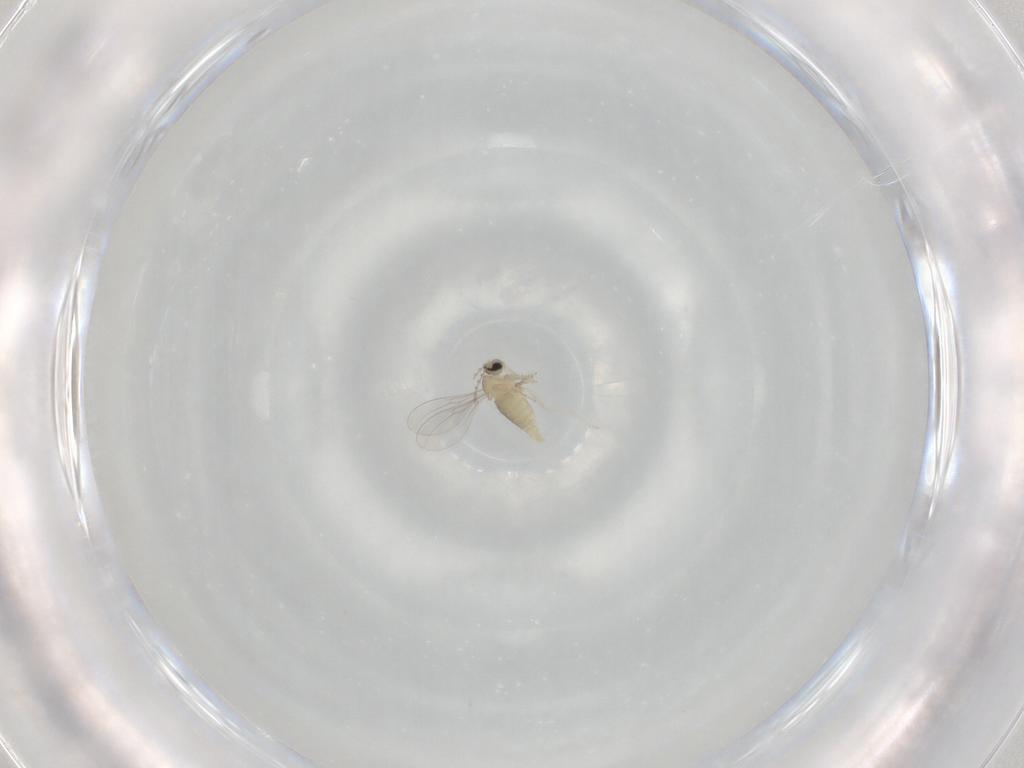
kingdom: Animalia
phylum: Arthropoda
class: Insecta
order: Diptera
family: Cecidomyiidae
